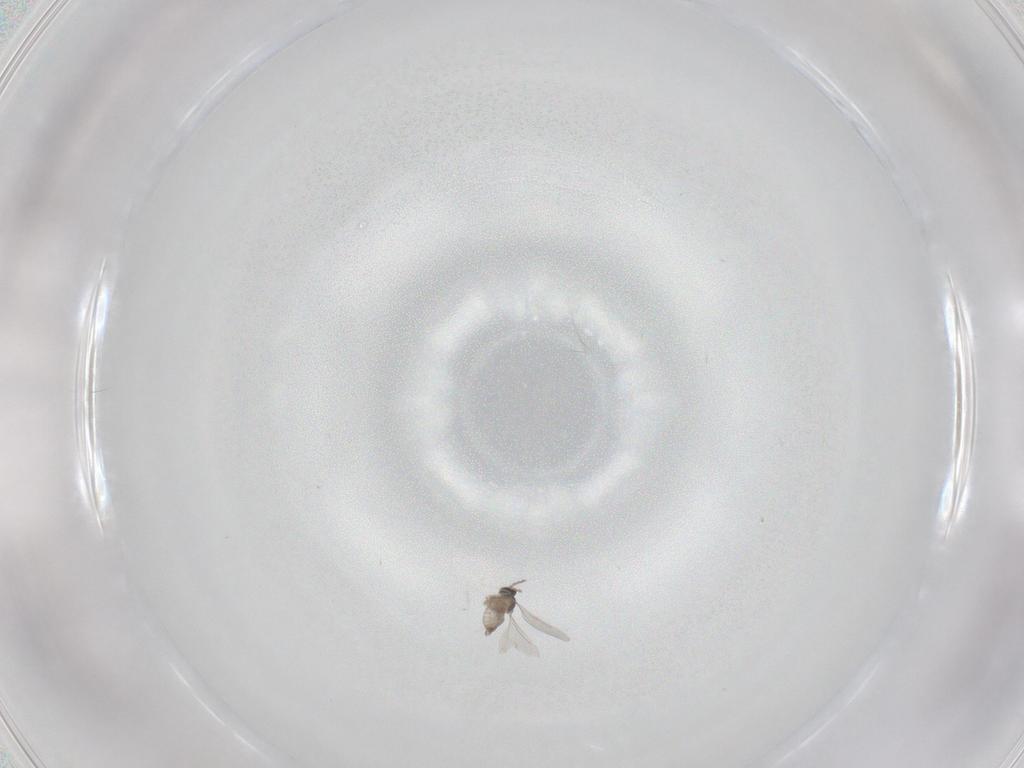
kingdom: Animalia
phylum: Arthropoda
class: Insecta
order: Diptera
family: Cecidomyiidae
